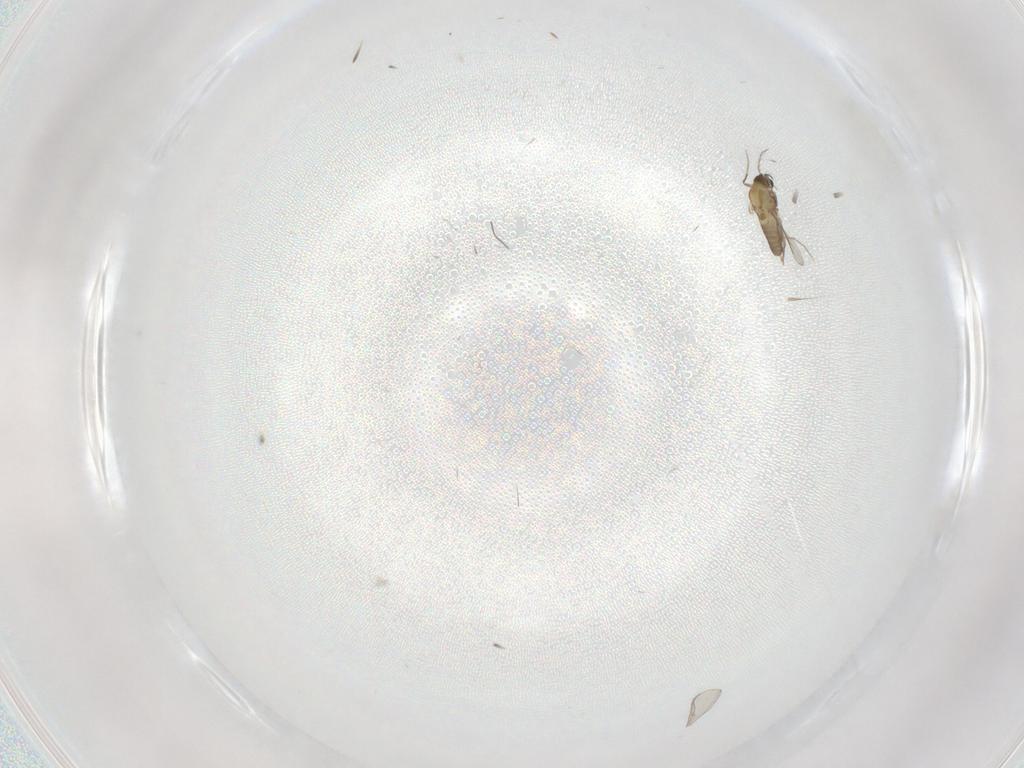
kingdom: Animalia
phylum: Arthropoda
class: Insecta
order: Diptera
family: Chironomidae
